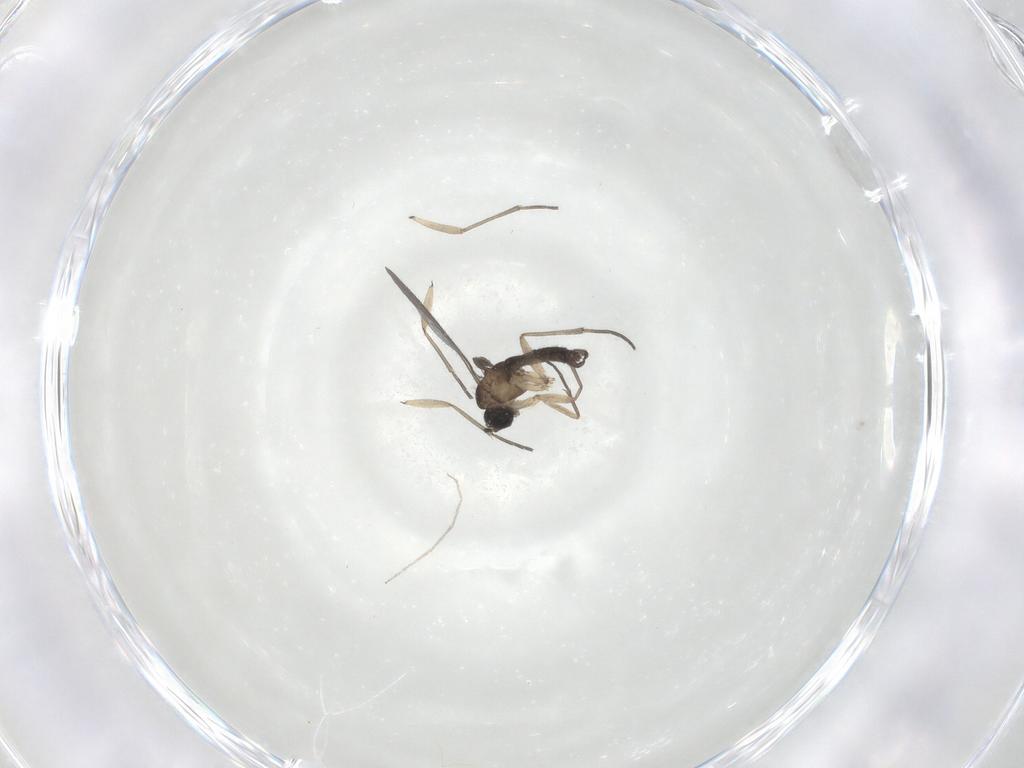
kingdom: Animalia
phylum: Arthropoda
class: Insecta
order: Diptera
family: Sciaridae
